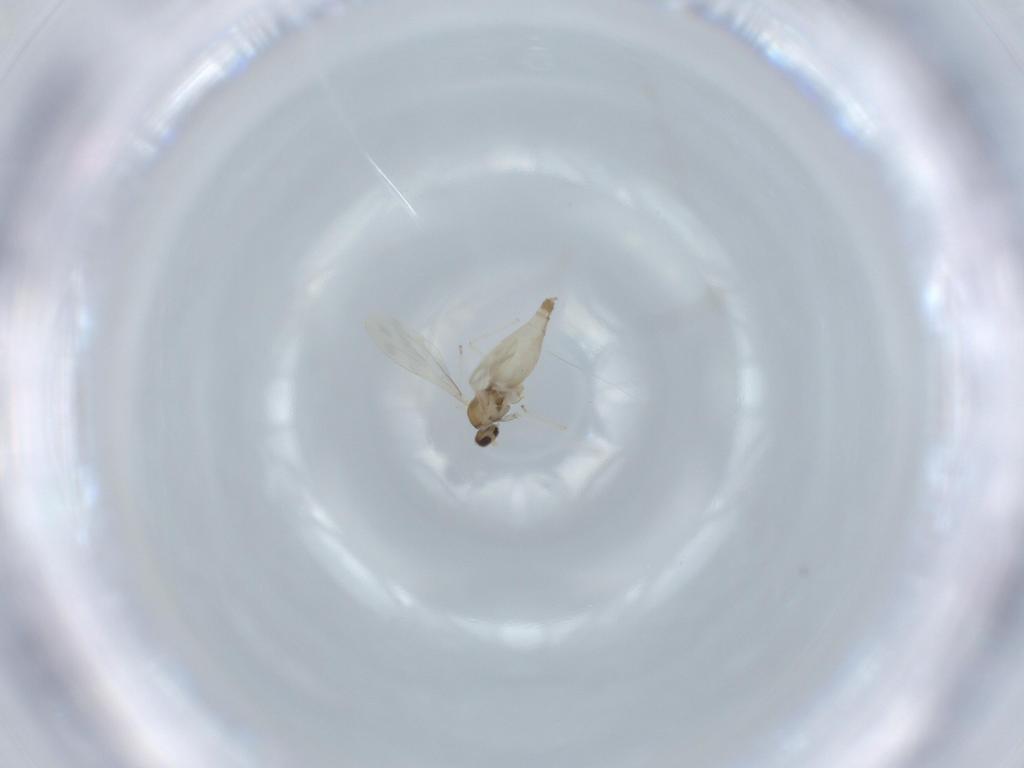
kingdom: Animalia
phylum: Arthropoda
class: Insecta
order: Diptera
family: Cecidomyiidae
